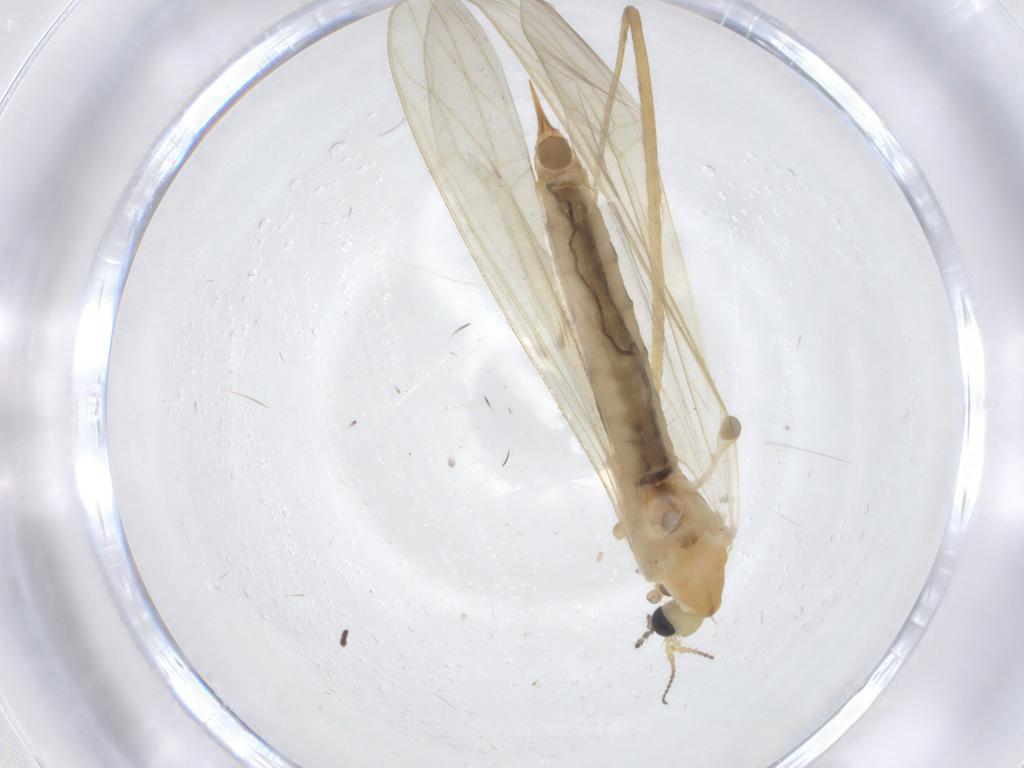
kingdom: Animalia
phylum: Arthropoda
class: Insecta
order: Diptera
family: Limoniidae
